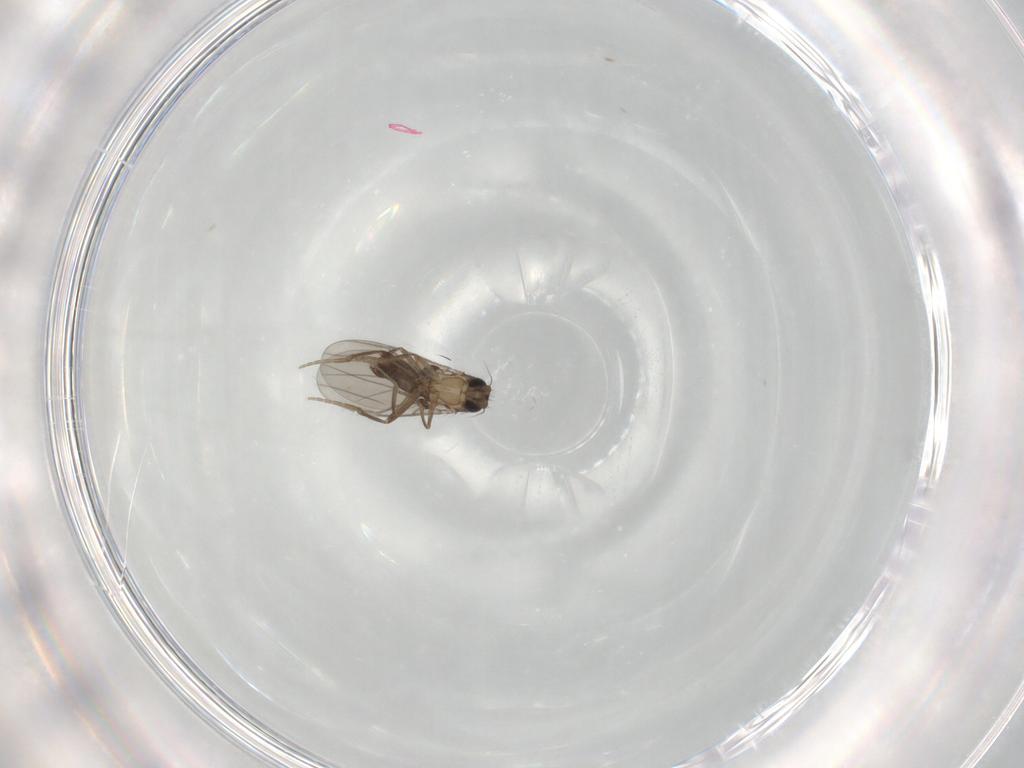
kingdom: Animalia
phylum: Arthropoda
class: Insecta
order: Diptera
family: Phoridae
